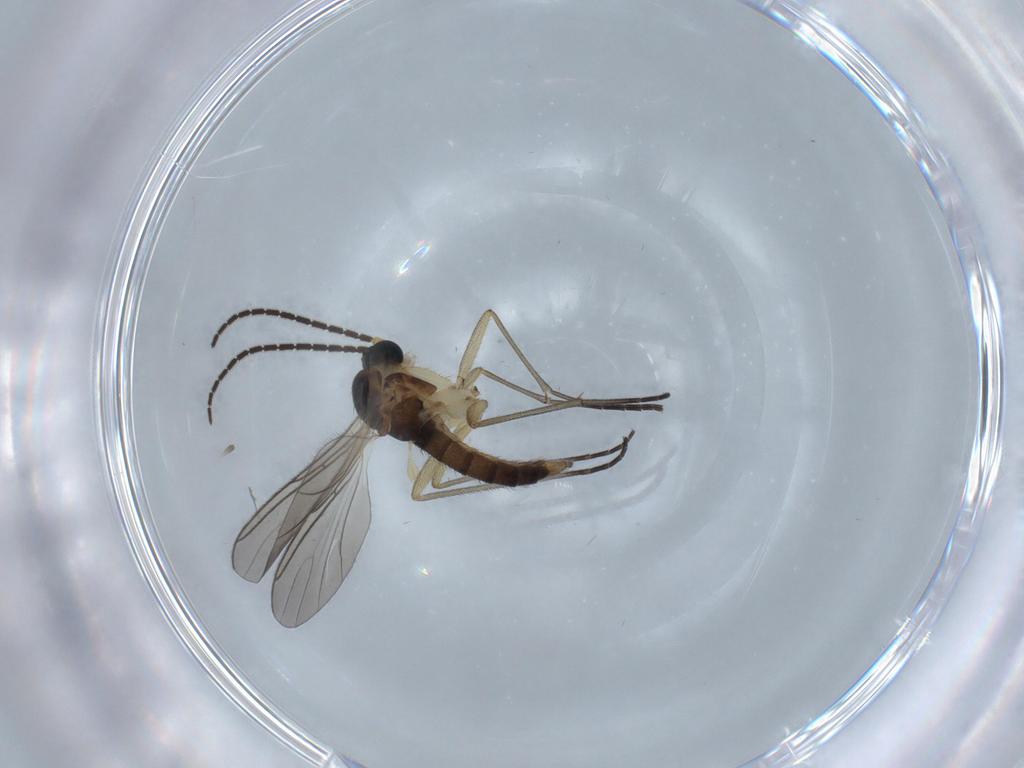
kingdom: Animalia
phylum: Arthropoda
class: Insecta
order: Diptera
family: Sciaridae
